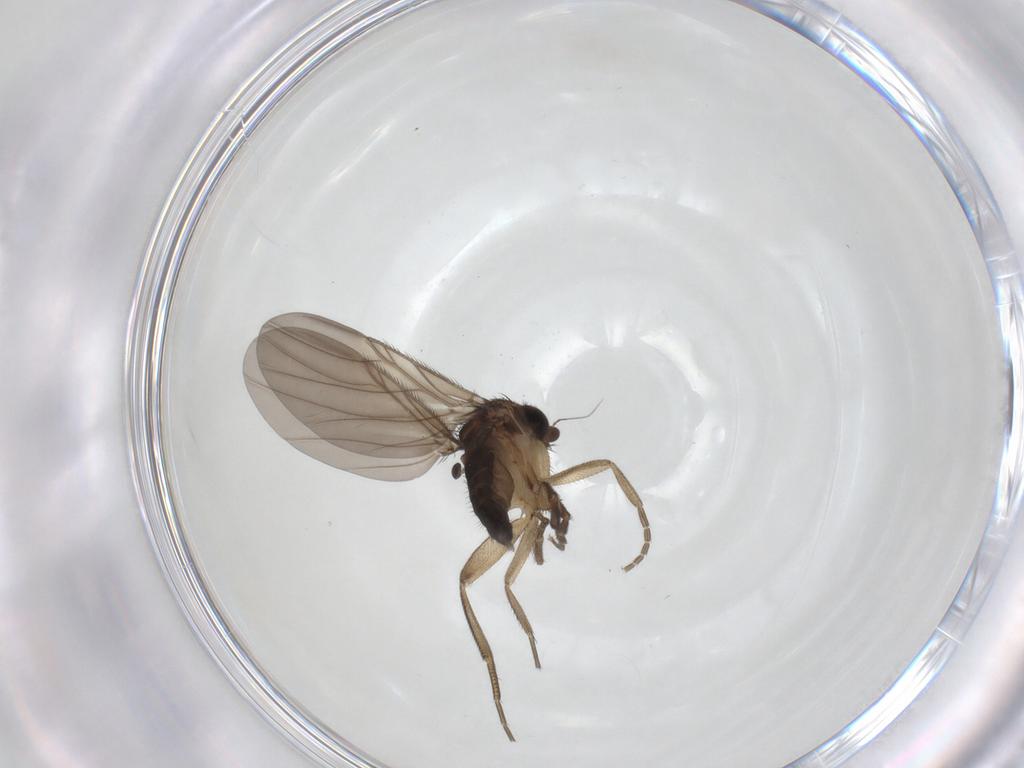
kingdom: Animalia
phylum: Arthropoda
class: Insecta
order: Diptera
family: Phoridae
